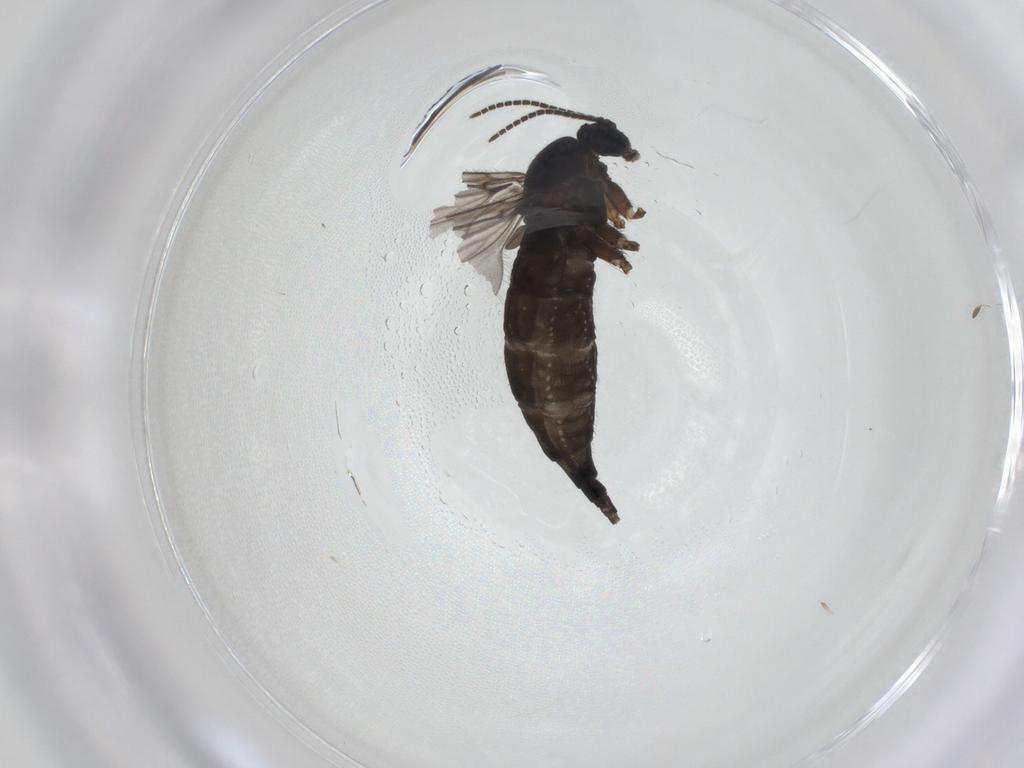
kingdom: Animalia
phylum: Arthropoda
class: Insecta
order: Diptera
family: Sciaridae
